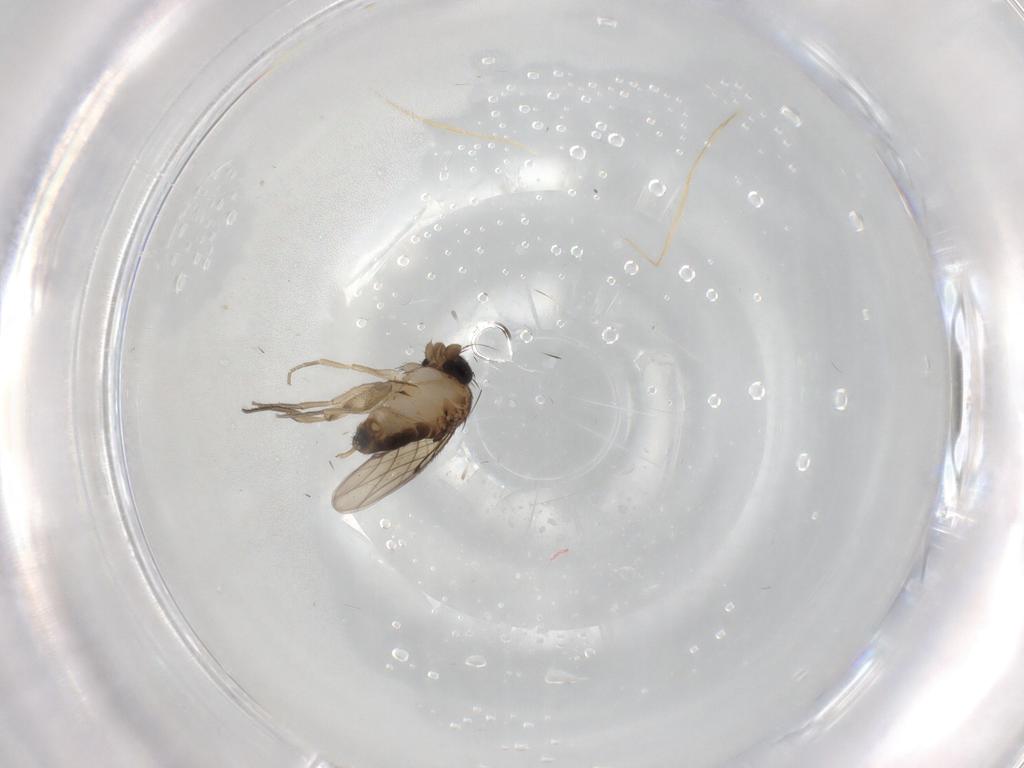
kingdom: Animalia
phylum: Arthropoda
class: Insecta
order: Diptera
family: Phoridae
